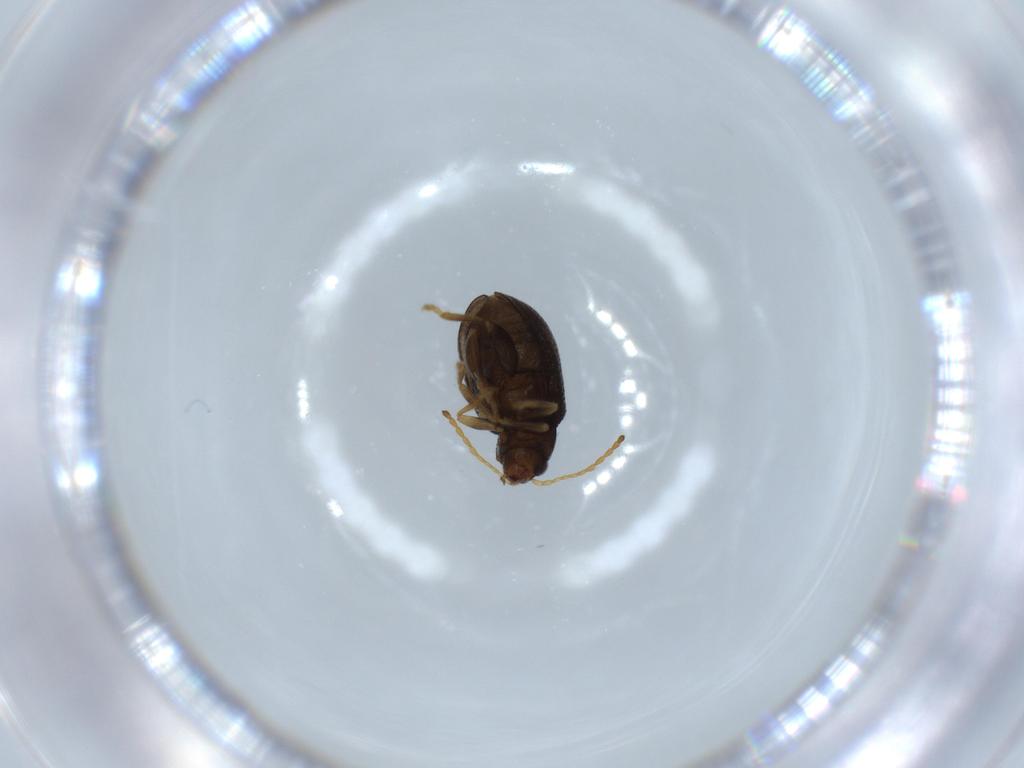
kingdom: Animalia
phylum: Arthropoda
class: Insecta
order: Coleoptera
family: Chrysomelidae
